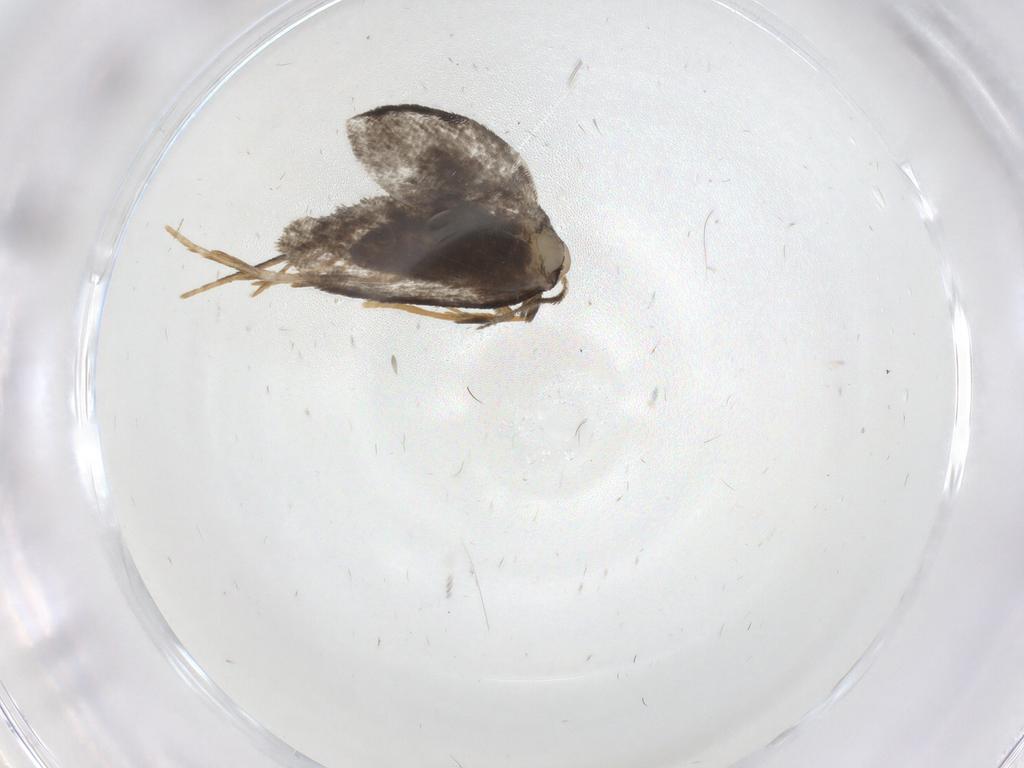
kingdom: Animalia
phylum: Arthropoda
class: Insecta
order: Lepidoptera
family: Psychidae
